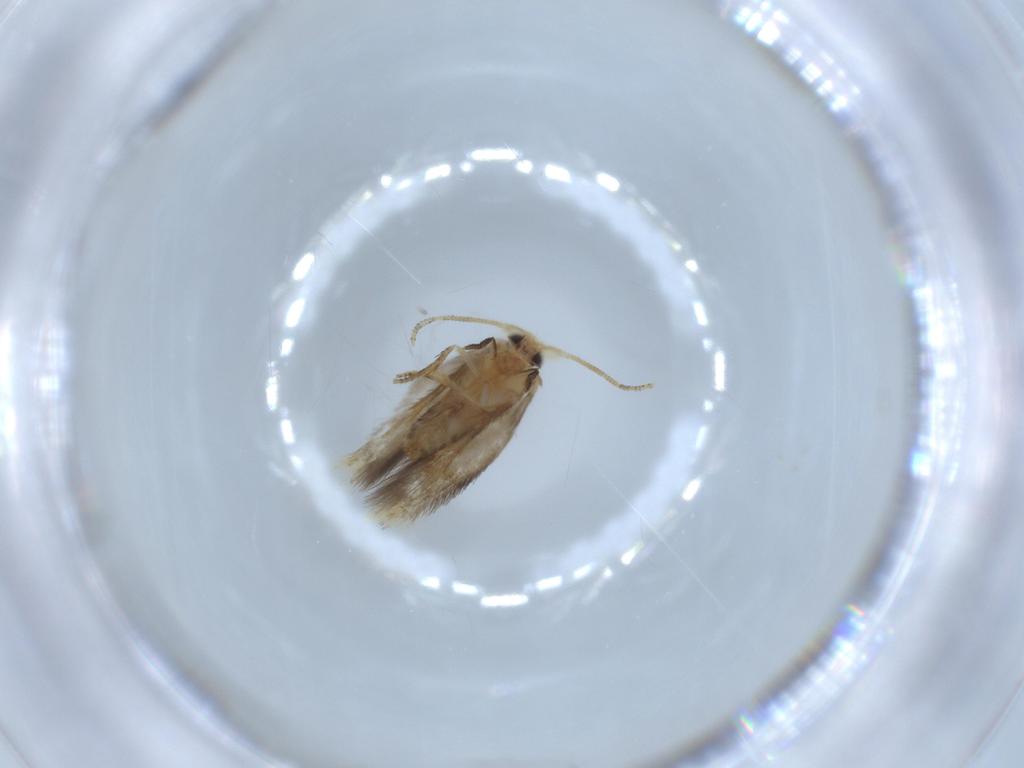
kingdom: Animalia
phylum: Arthropoda
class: Insecta
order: Lepidoptera
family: Nepticulidae
